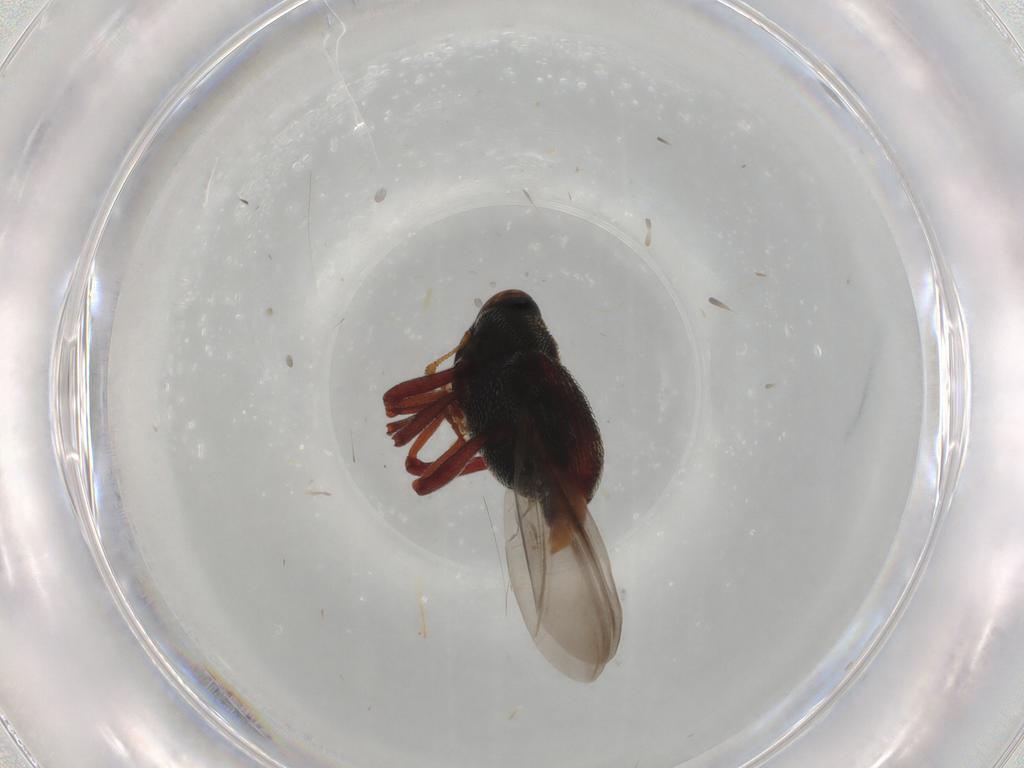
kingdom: Animalia
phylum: Arthropoda
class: Insecta
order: Coleoptera
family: Curculionidae
